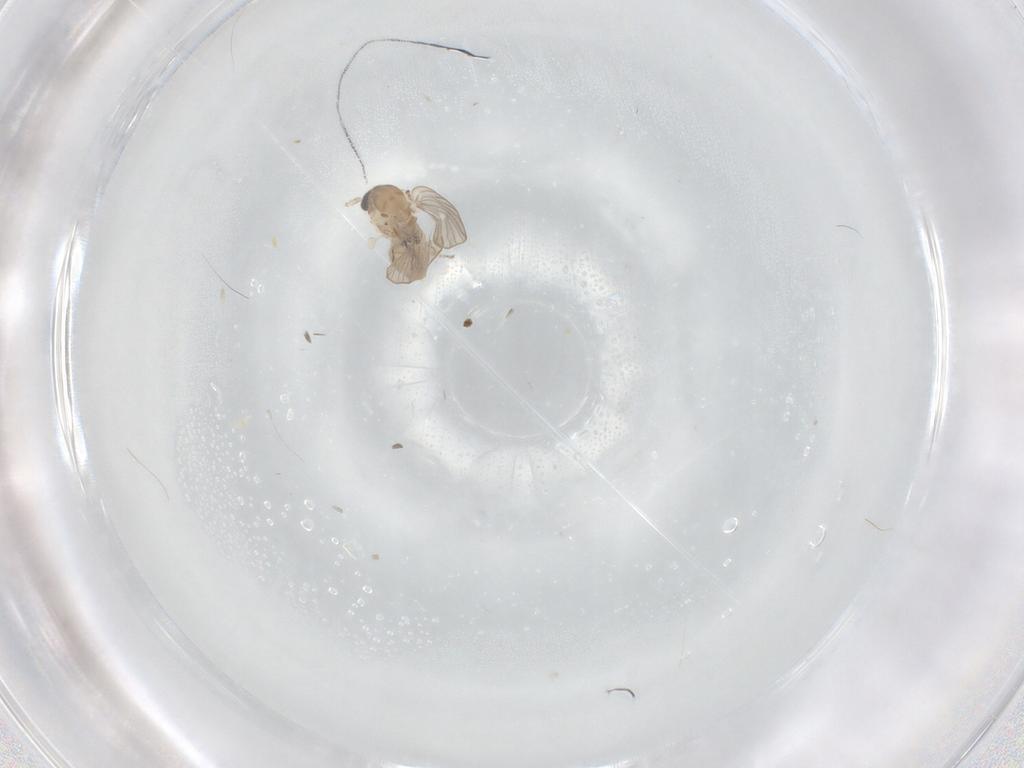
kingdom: Animalia
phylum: Arthropoda
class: Insecta
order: Diptera
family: Psychodidae
